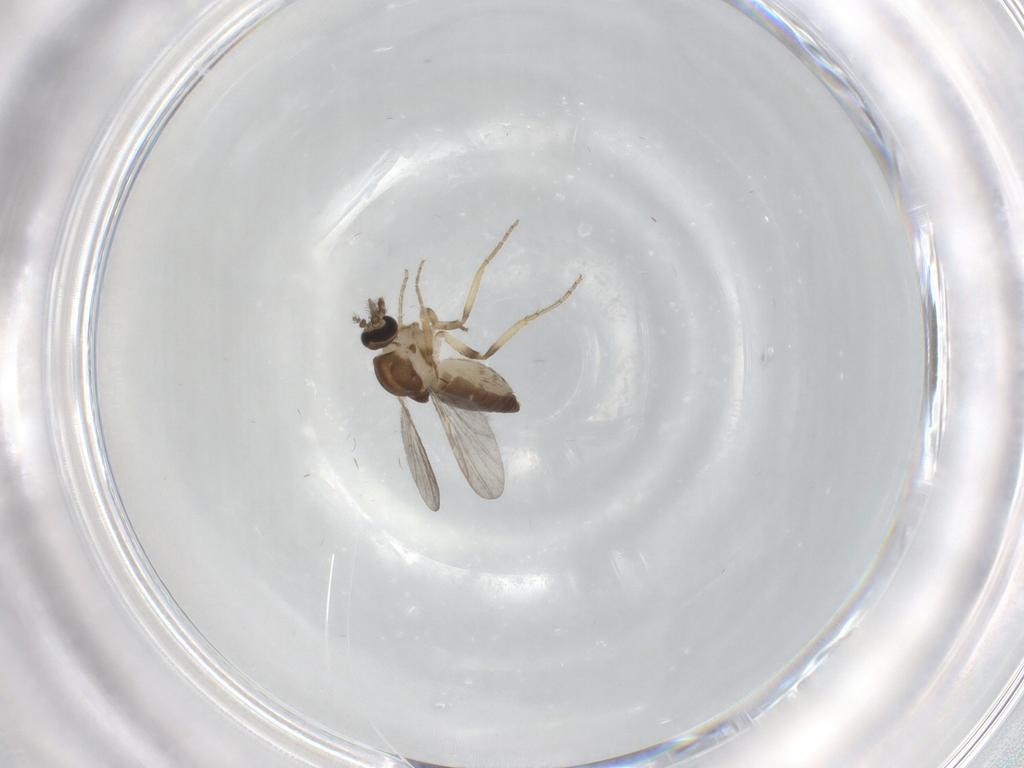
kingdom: Animalia
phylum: Arthropoda
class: Insecta
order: Diptera
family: Ceratopogonidae
